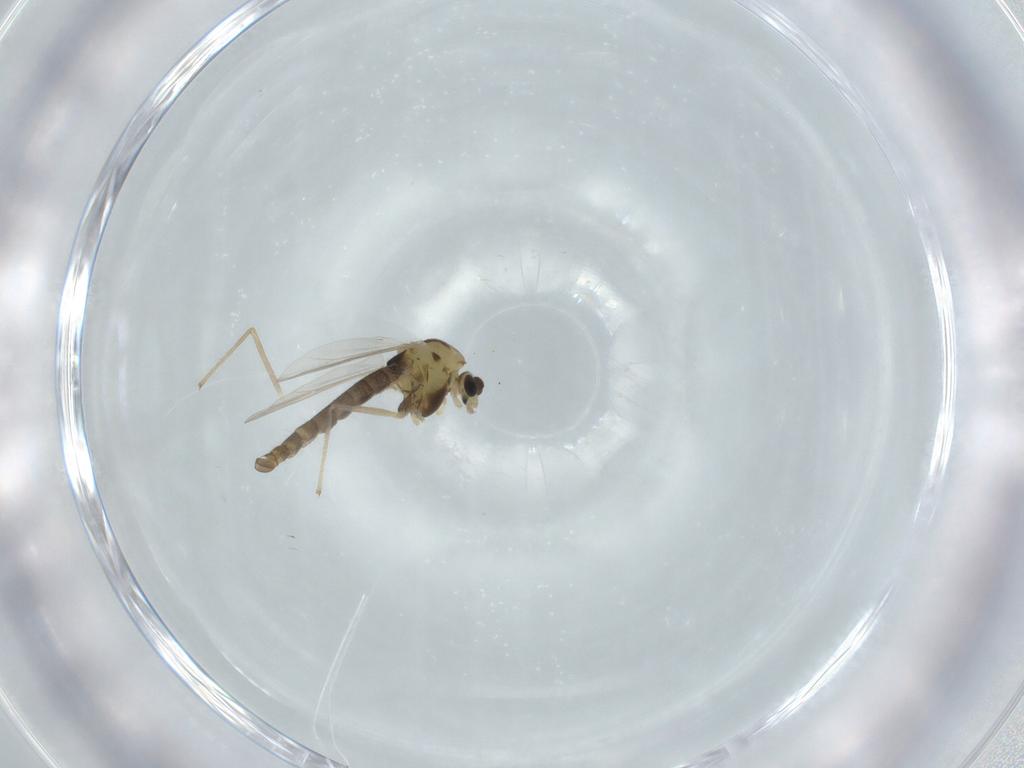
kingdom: Animalia
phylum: Arthropoda
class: Insecta
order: Diptera
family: Chironomidae
